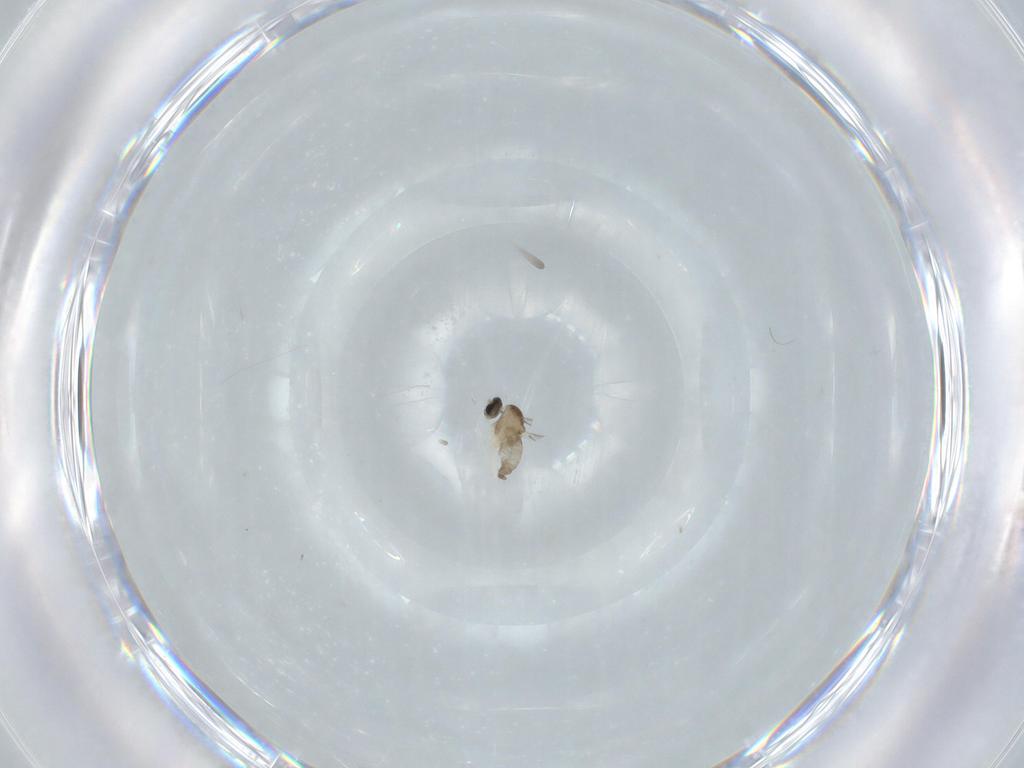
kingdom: Animalia
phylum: Arthropoda
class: Insecta
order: Diptera
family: Cecidomyiidae
